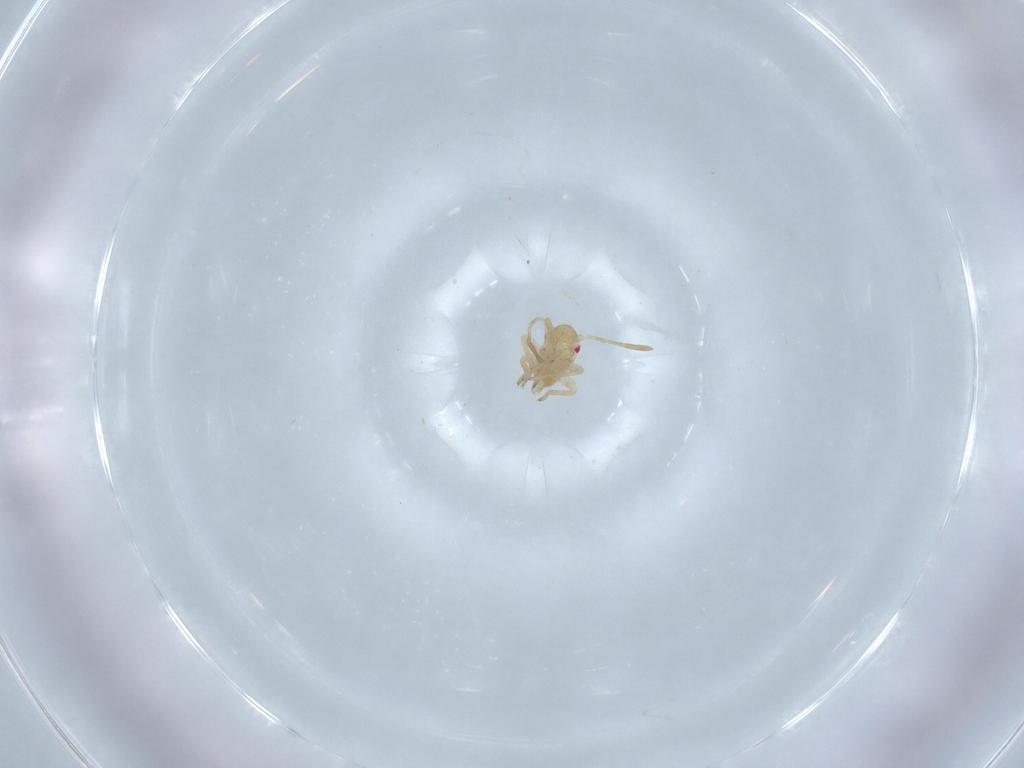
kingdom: Animalia
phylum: Arthropoda
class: Insecta
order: Hemiptera
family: Miridae
